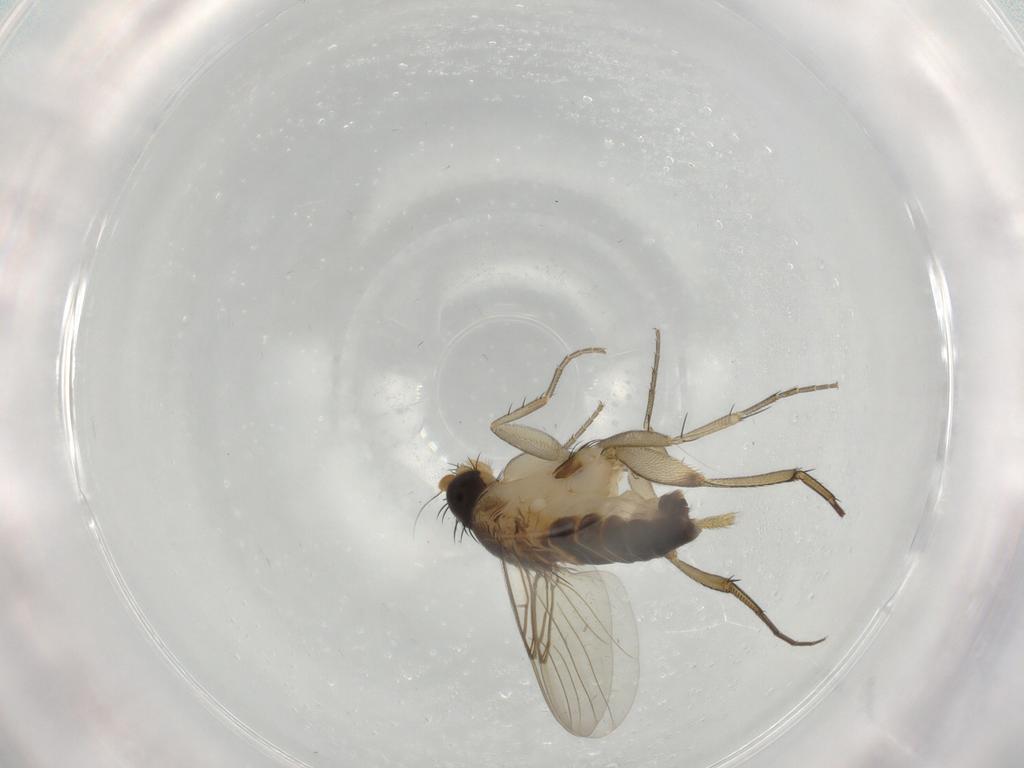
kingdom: Animalia
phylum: Arthropoda
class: Insecta
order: Diptera
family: Phoridae
